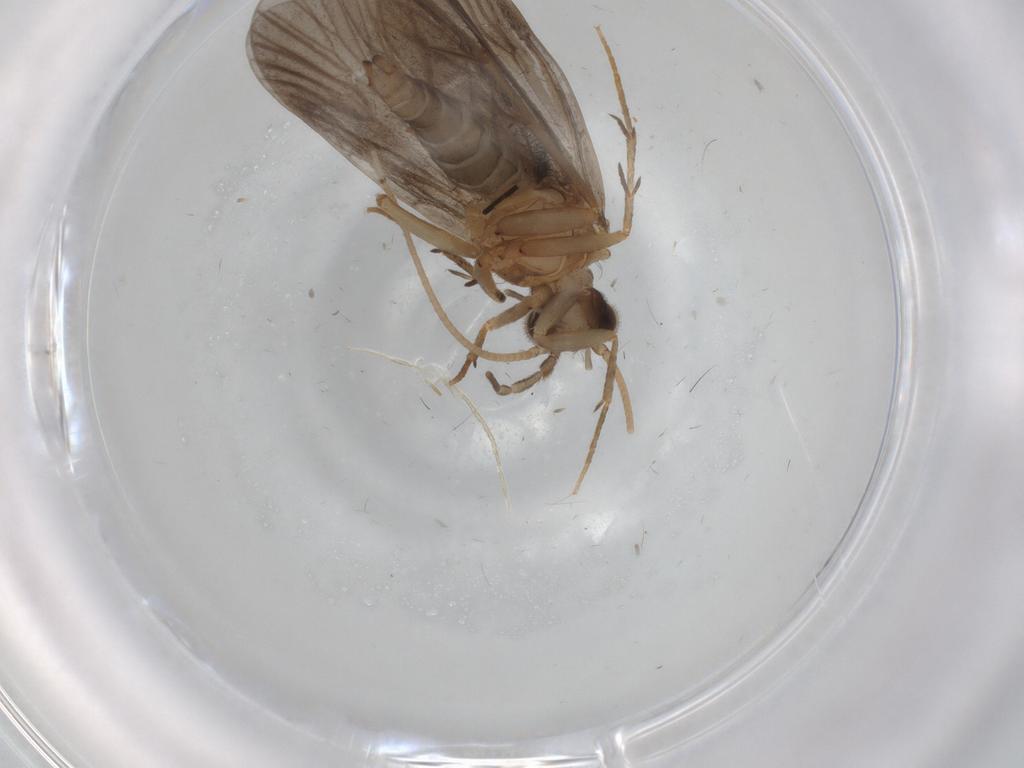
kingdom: Animalia
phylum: Arthropoda
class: Insecta
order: Trichoptera
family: Philopotamidae
